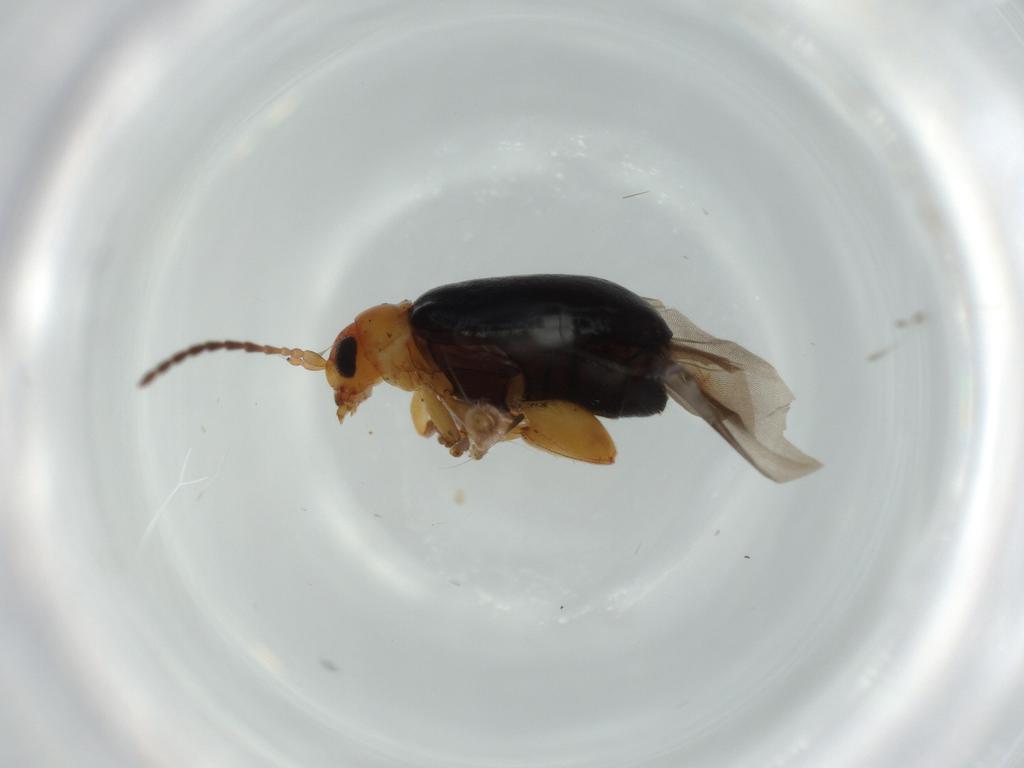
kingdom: Animalia
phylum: Arthropoda
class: Insecta
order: Coleoptera
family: Chrysomelidae
